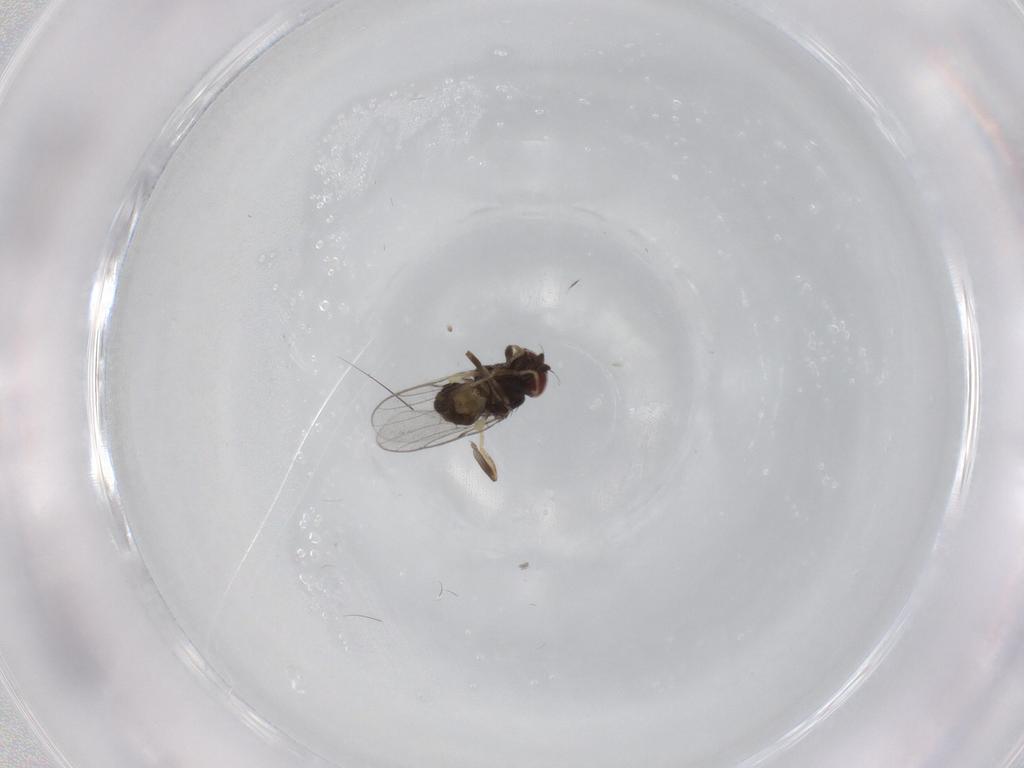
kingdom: Animalia
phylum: Arthropoda
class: Insecta
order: Diptera
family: Chloropidae
